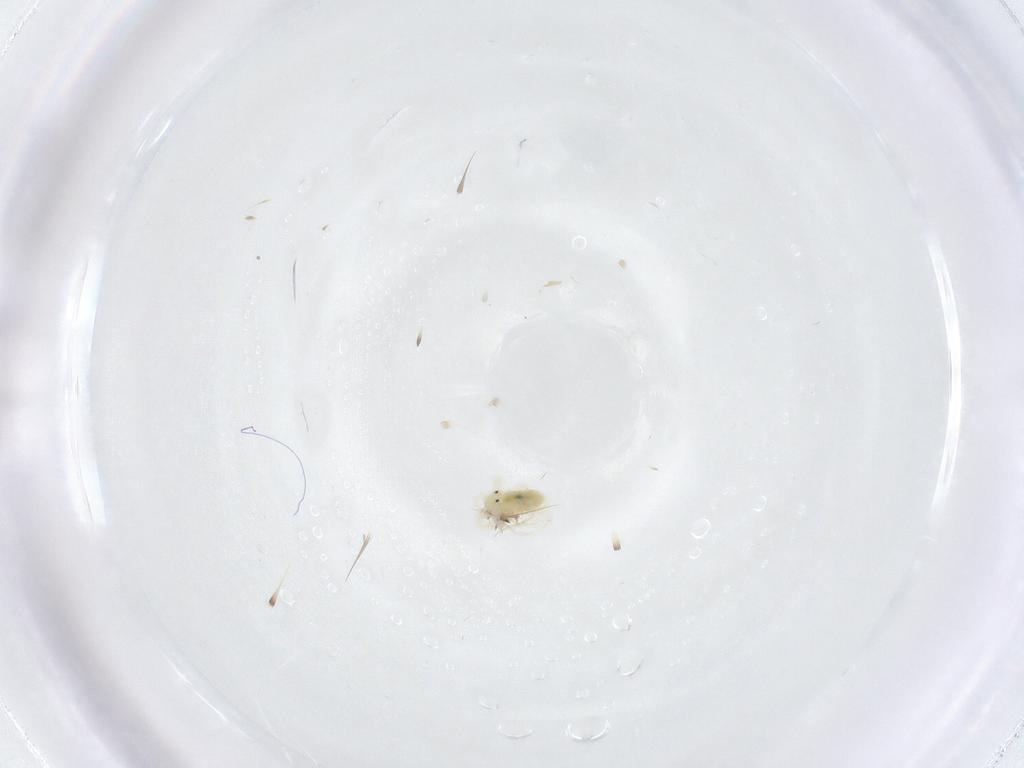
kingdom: Animalia
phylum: Arthropoda
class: Arachnida
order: Trombidiformes
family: Anystidae
